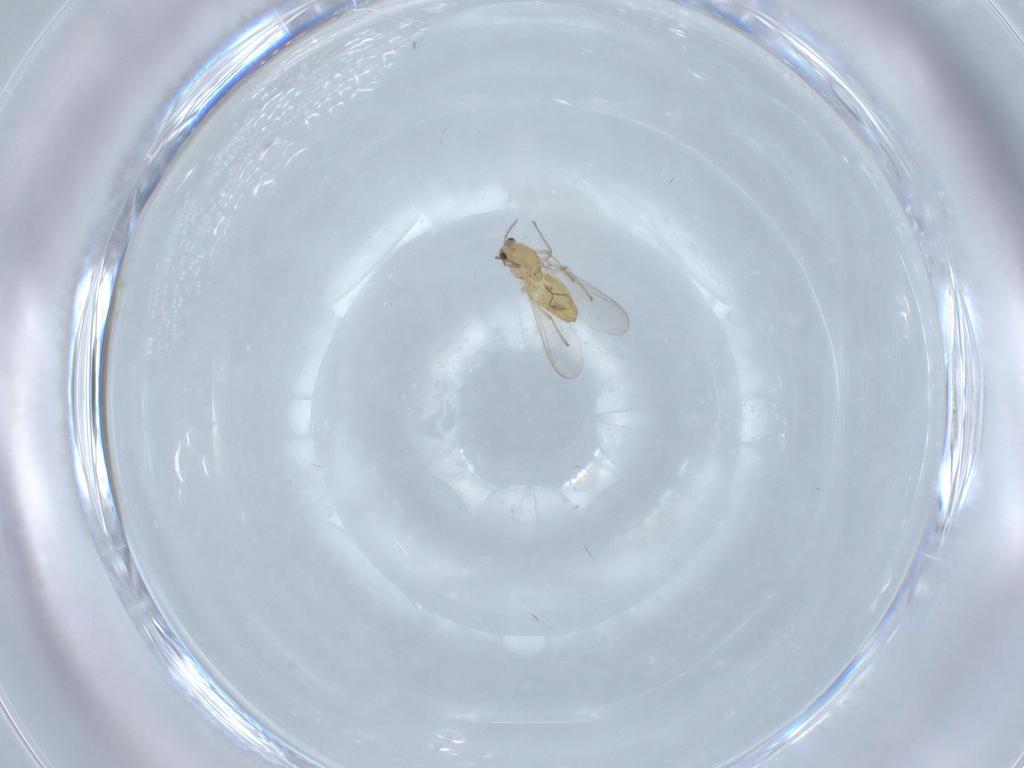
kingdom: Animalia
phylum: Arthropoda
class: Insecta
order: Diptera
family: Chironomidae
